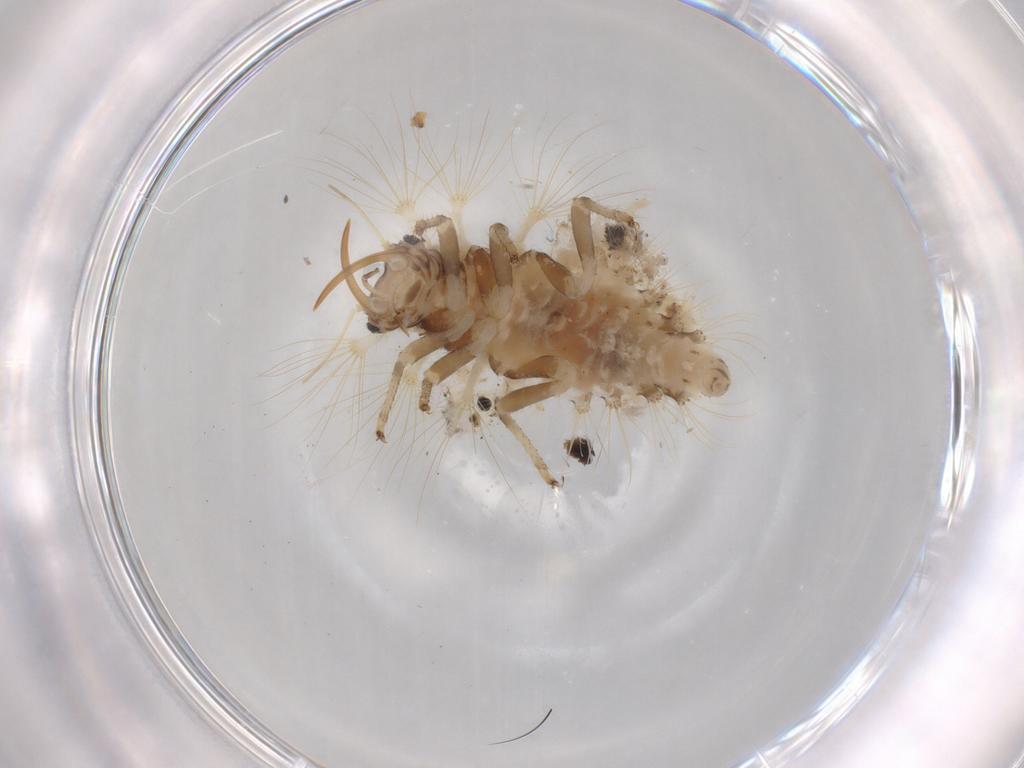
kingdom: Animalia
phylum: Arthropoda
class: Insecta
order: Neuroptera
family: Chrysopidae
